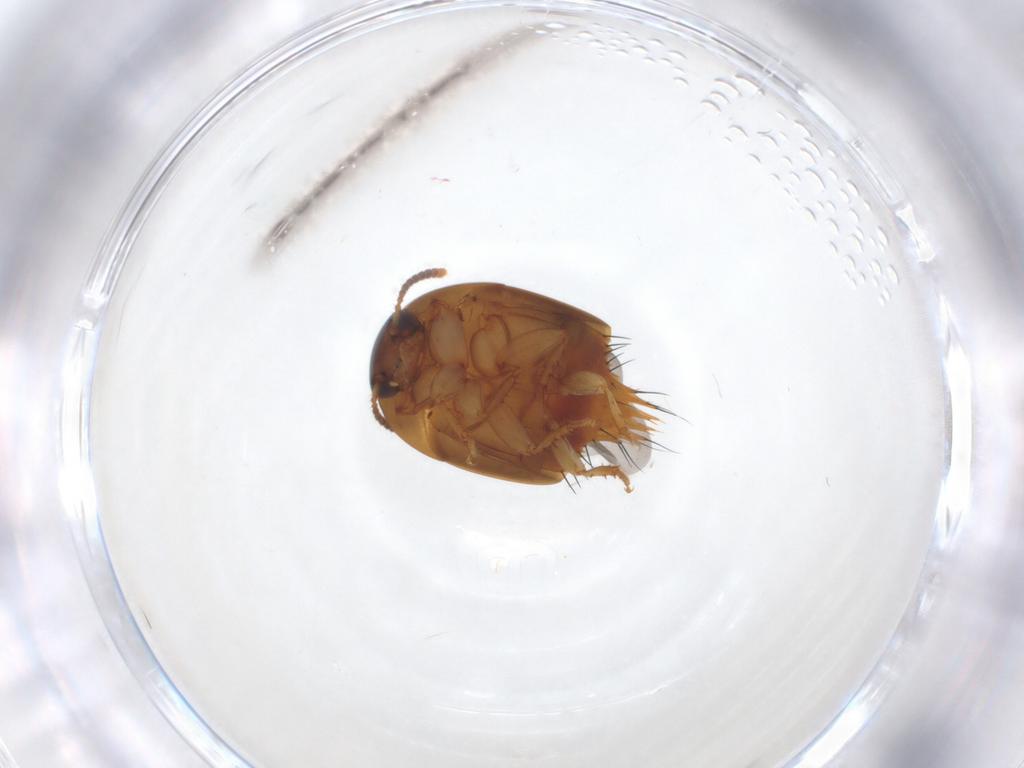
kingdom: Animalia
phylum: Arthropoda
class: Insecta
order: Coleoptera
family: Staphylinidae
